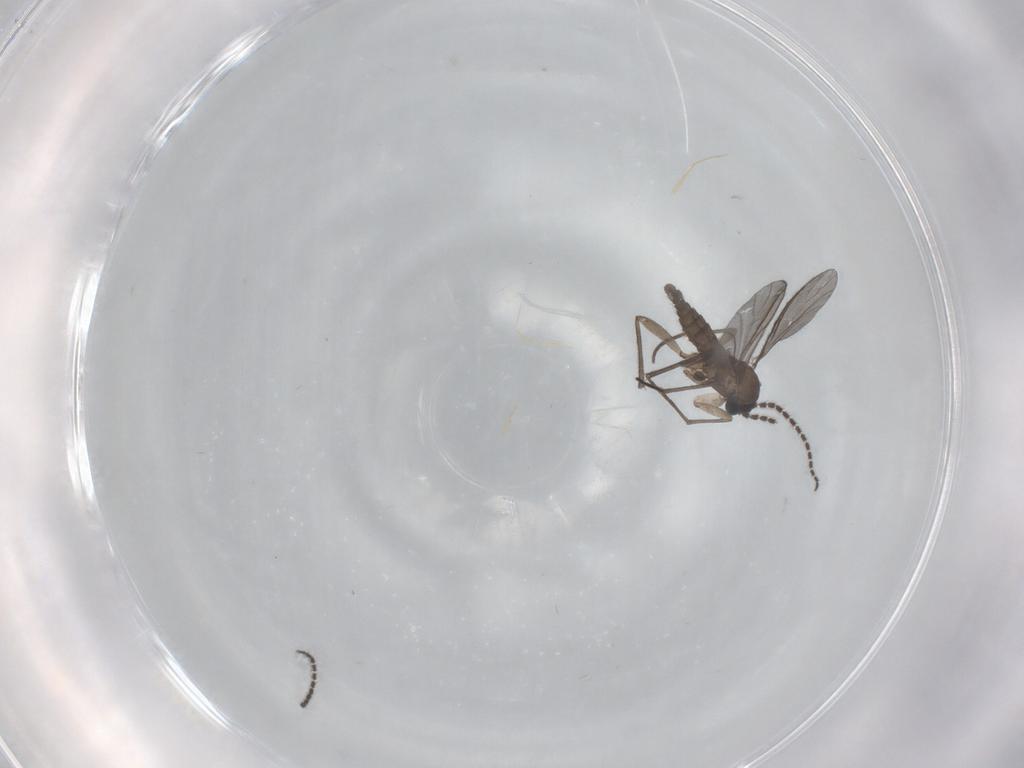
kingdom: Animalia
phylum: Arthropoda
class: Insecta
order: Diptera
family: Sciaridae
